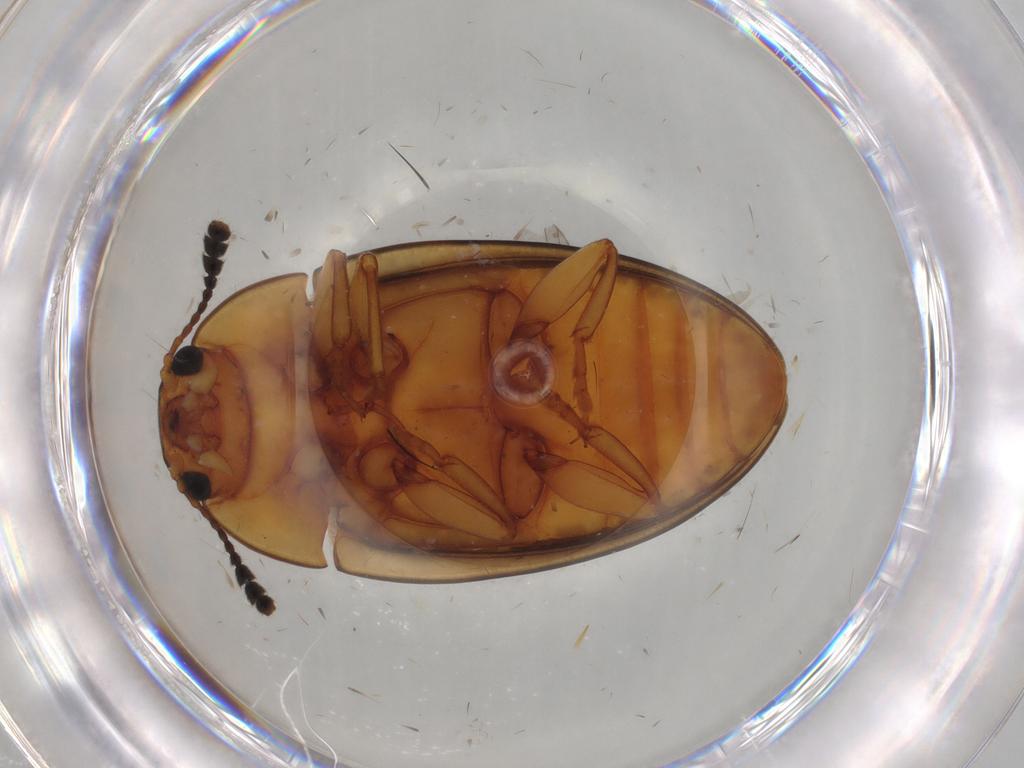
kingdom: Animalia
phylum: Arthropoda
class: Insecta
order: Coleoptera
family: Erotylidae
